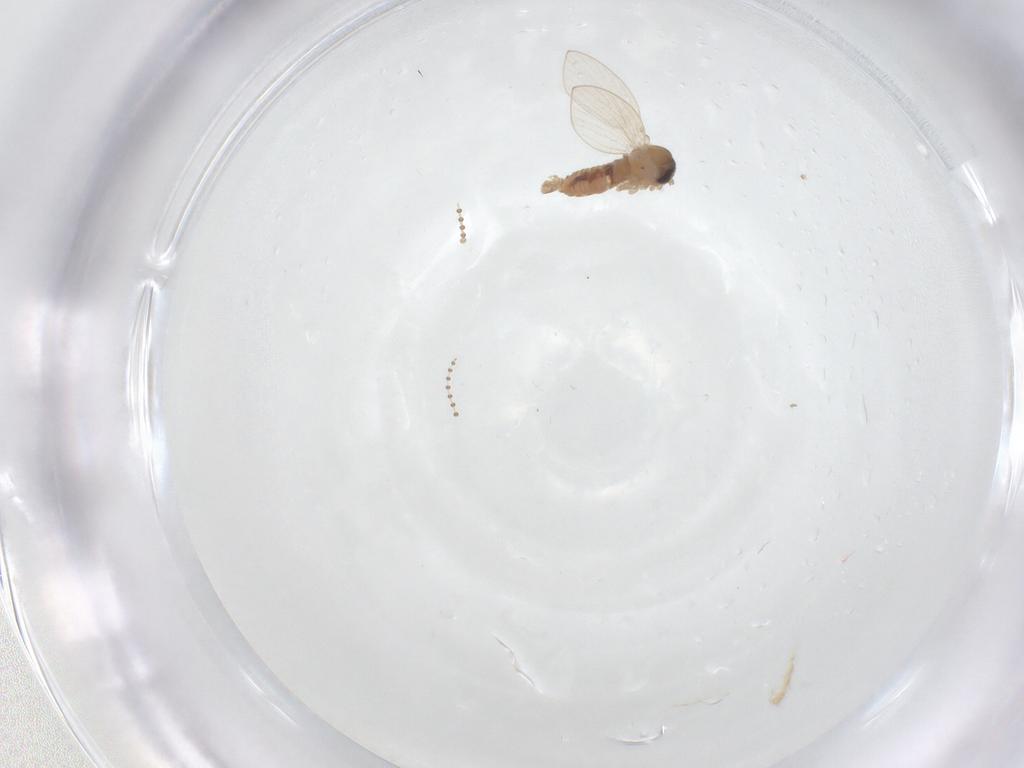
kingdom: Animalia
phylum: Arthropoda
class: Insecta
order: Diptera
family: Psychodidae
